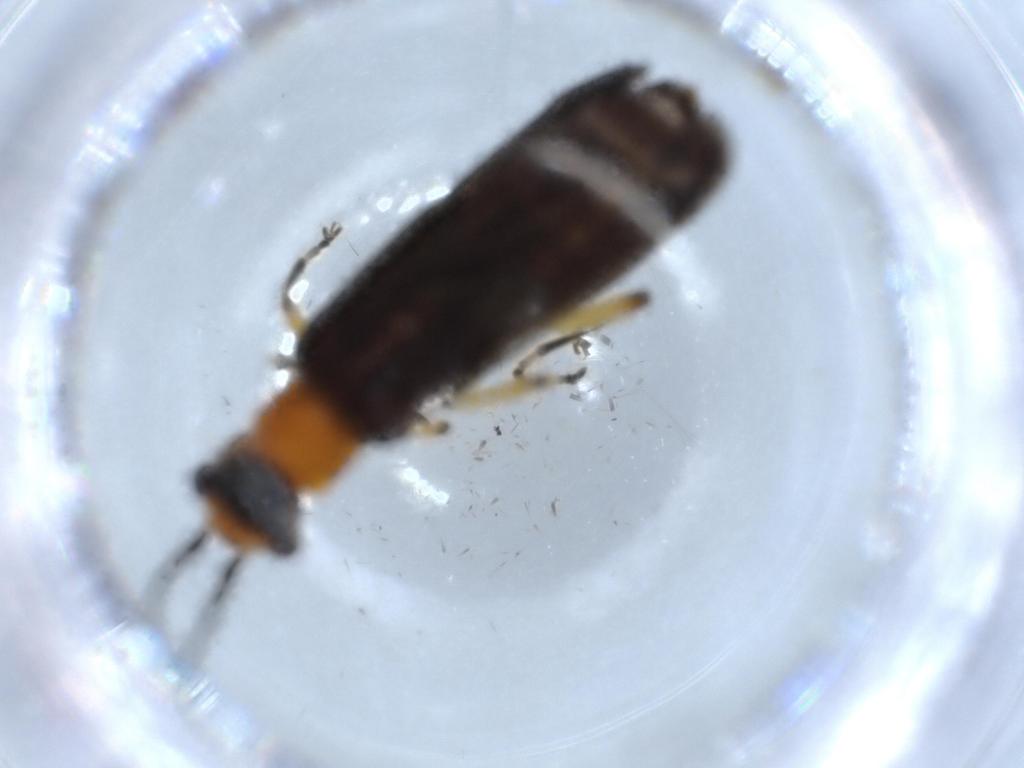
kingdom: Animalia
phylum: Arthropoda
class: Insecta
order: Coleoptera
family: Cantharidae
